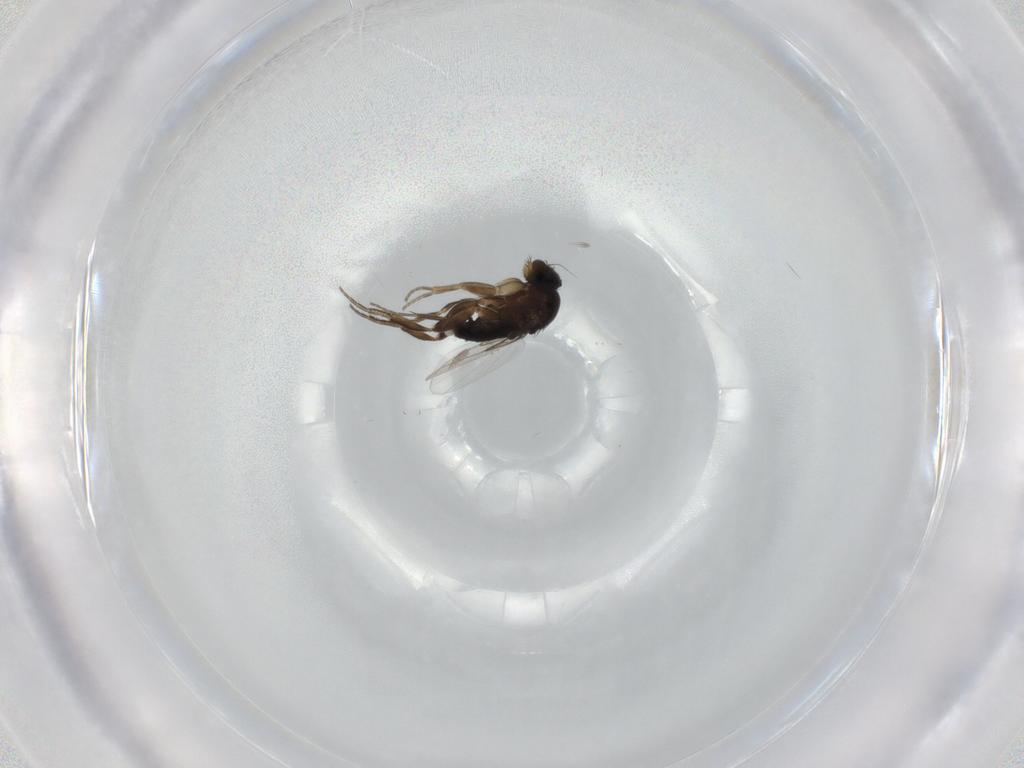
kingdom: Animalia
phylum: Arthropoda
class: Insecta
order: Diptera
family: Phoridae
